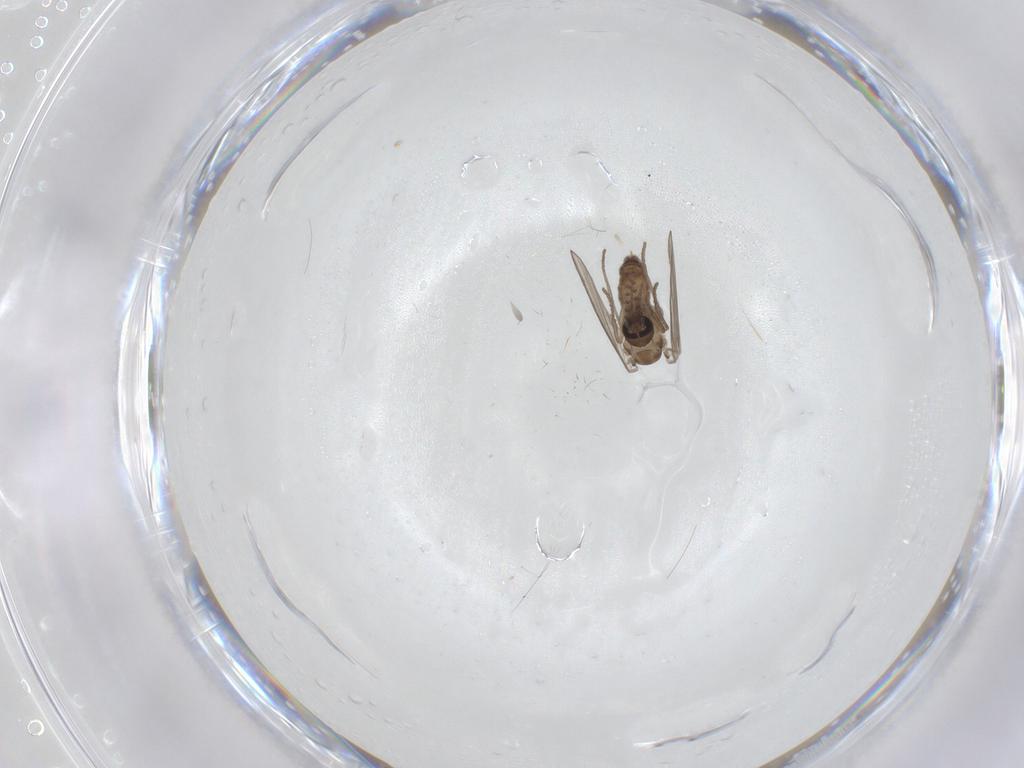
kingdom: Animalia
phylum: Arthropoda
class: Insecta
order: Diptera
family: Psychodidae
